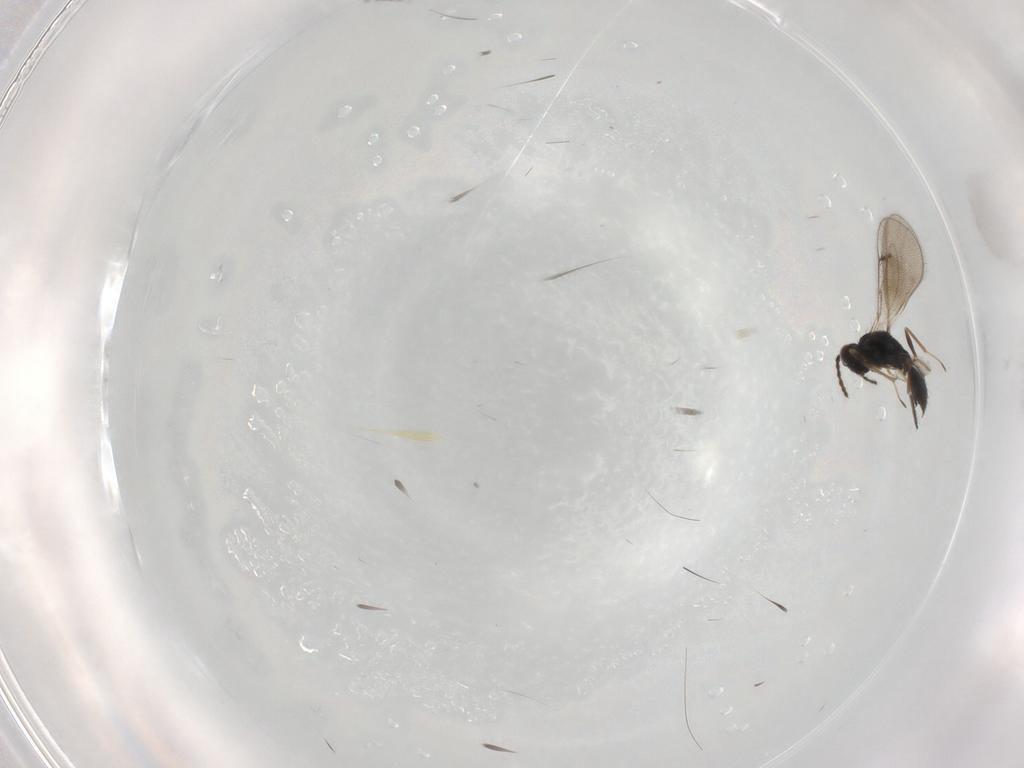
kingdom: Animalia
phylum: Arthropoda
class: Insecta
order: Hymenoptera
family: Eulophidae
